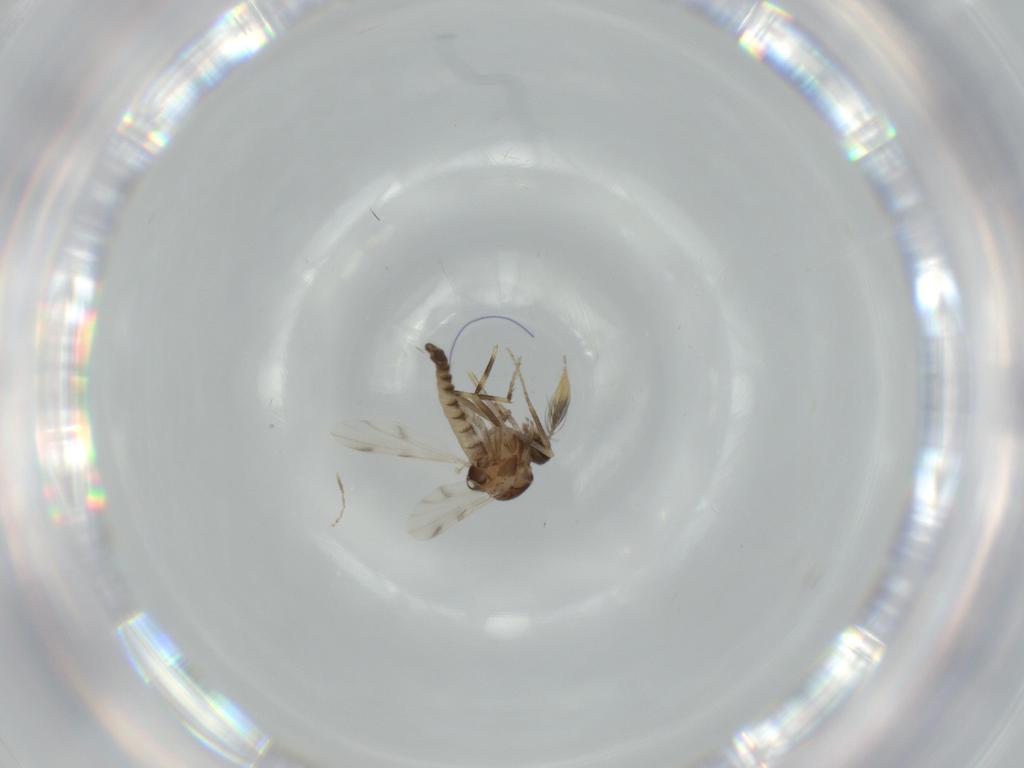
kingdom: Animalia
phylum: Arthropoda
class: Insecta
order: Diptera
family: Ceratopogonidae
